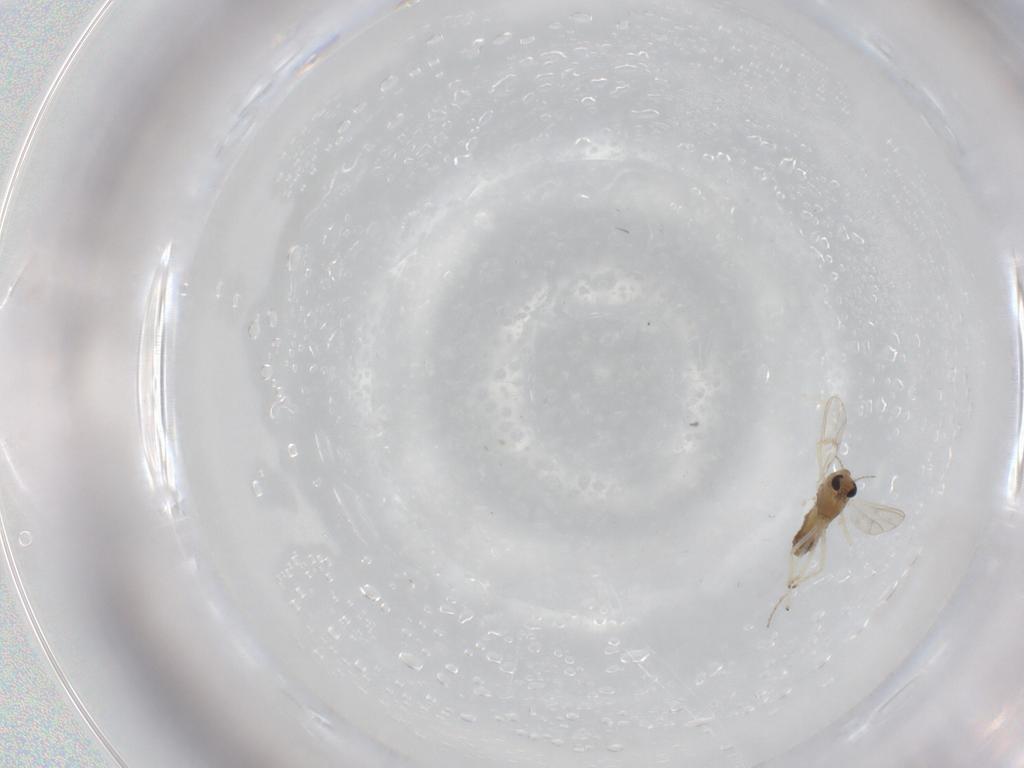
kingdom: Animalia
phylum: Arthropoda
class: Insecta
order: Diptera
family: Chironomidae
